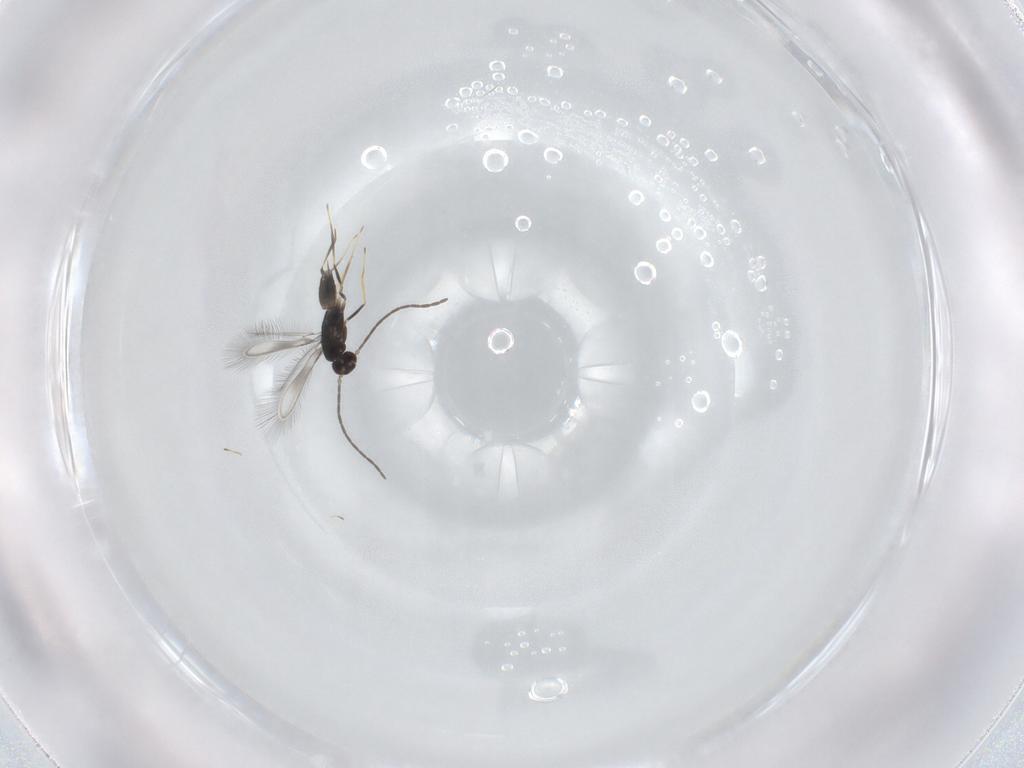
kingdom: Animalia
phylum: Arthropoda
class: Insecta
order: Hymenoptera
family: Mymaridae
